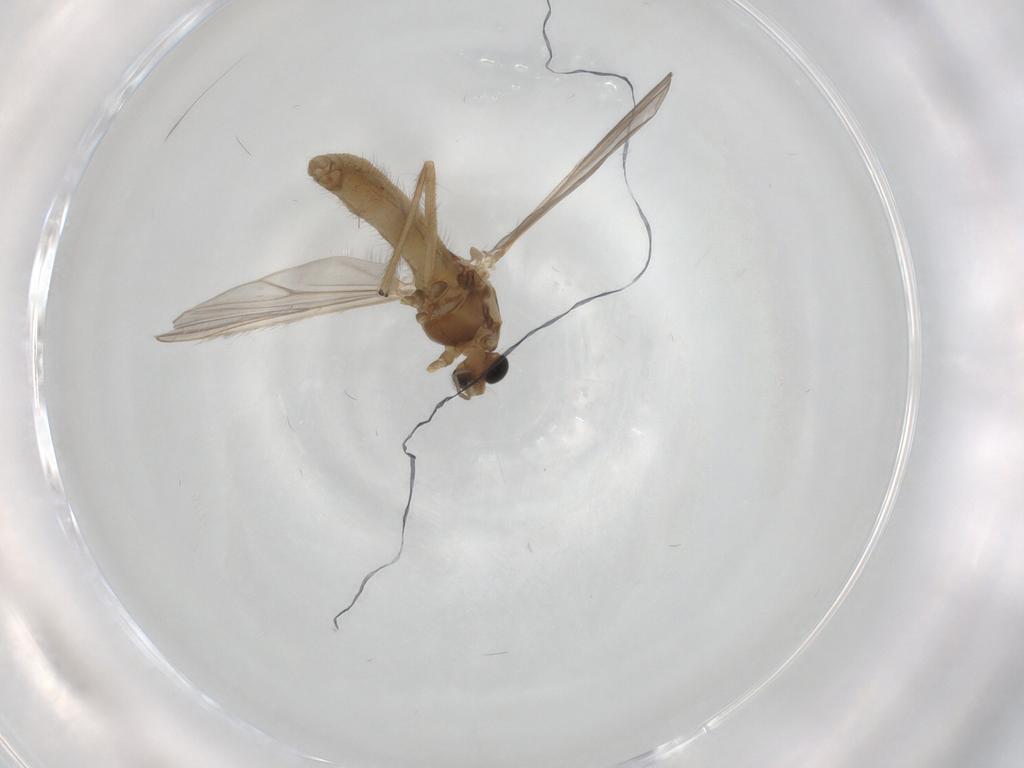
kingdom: Animalia
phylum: Arthropoda
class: Insecta
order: Diptera
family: Chironomidae
